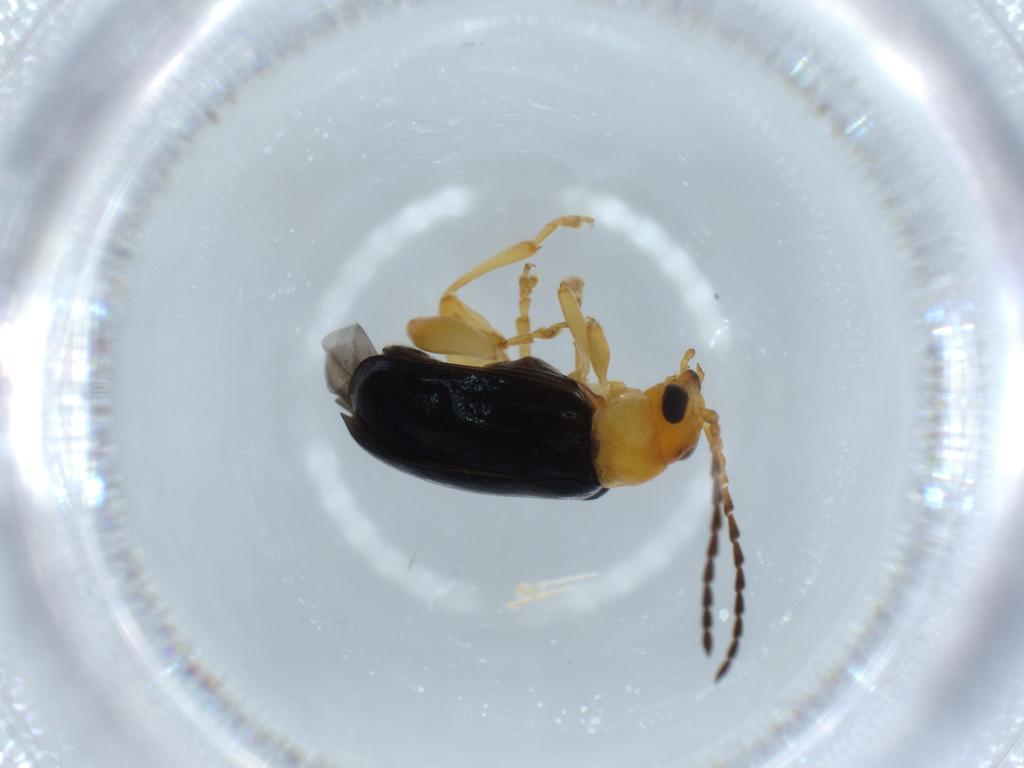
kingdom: Animalia
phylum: Arthropoda
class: Insecta
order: Coleoptera
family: Chrysomelidae
